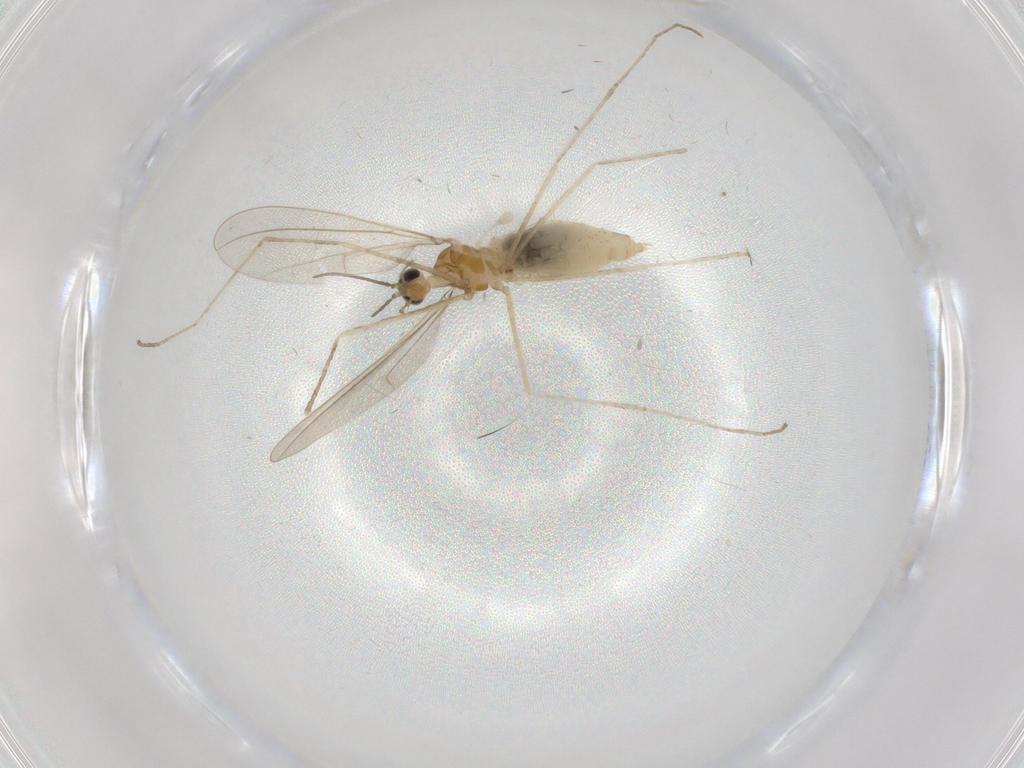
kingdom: Animalia
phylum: Arthropoda
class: Insecta
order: Diptera
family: Cecidomyiidae
